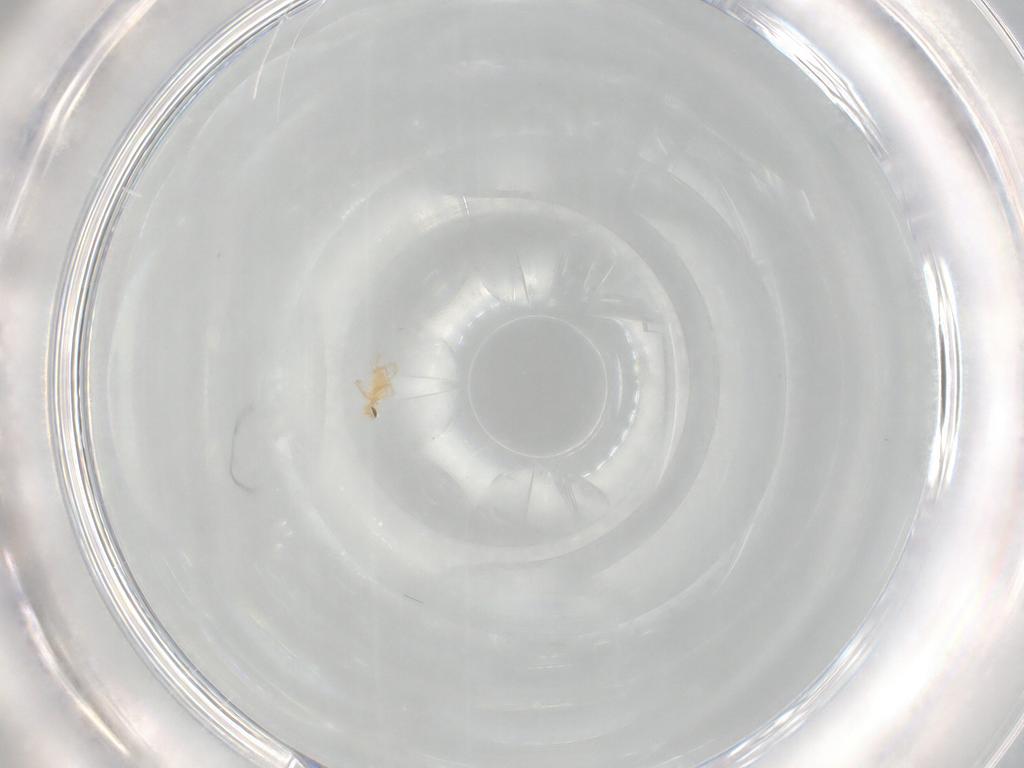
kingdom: Animalia
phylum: Arthropoda
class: Arachnida
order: Trombidiformes
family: Erythraeidae
